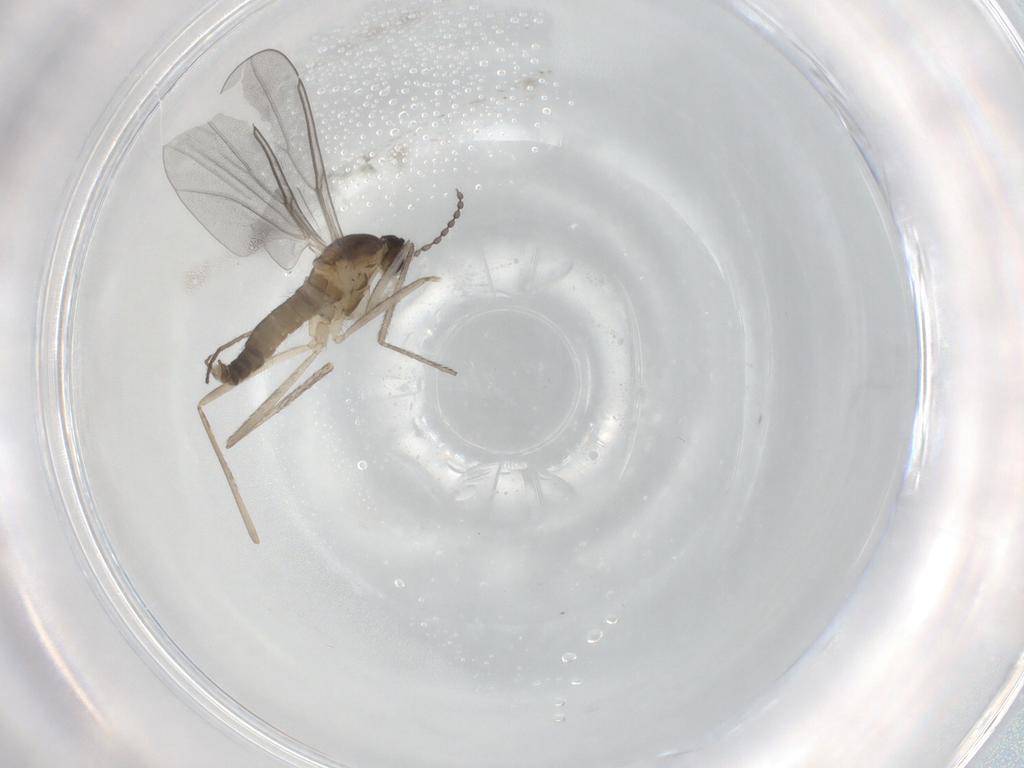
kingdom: Animalia
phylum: Arthropoda
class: Insecta
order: Diptera
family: Cecidomyiidae
